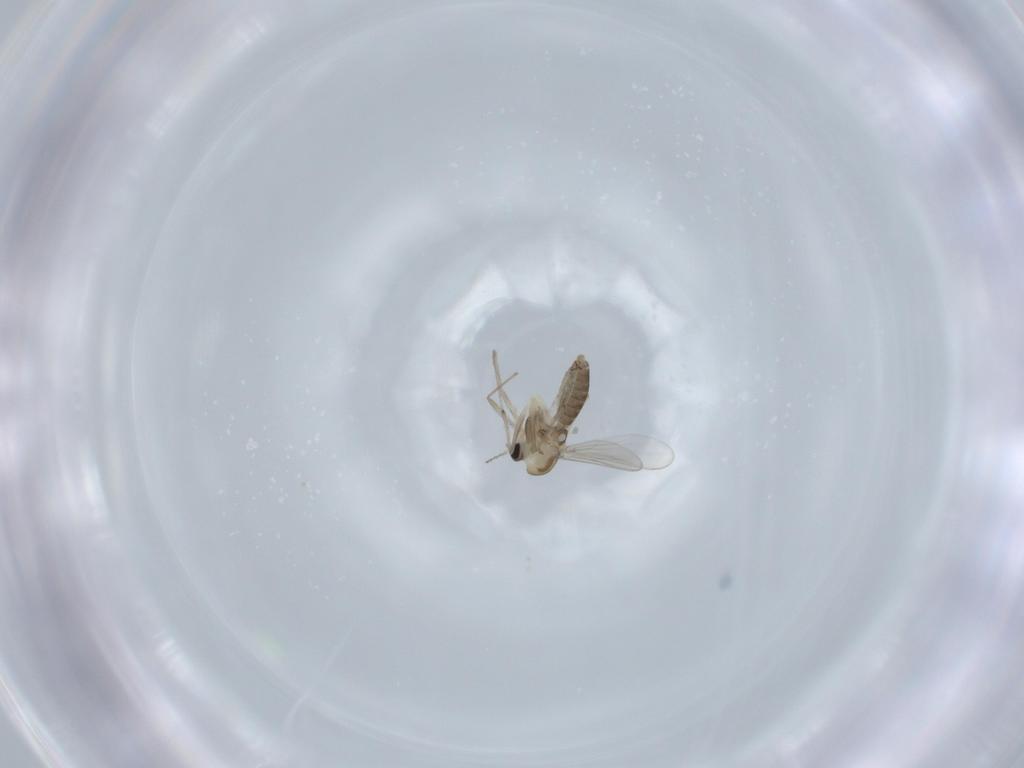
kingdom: Animalia
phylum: Arthropoda
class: Insecta
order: Diptera
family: Chironomidae
